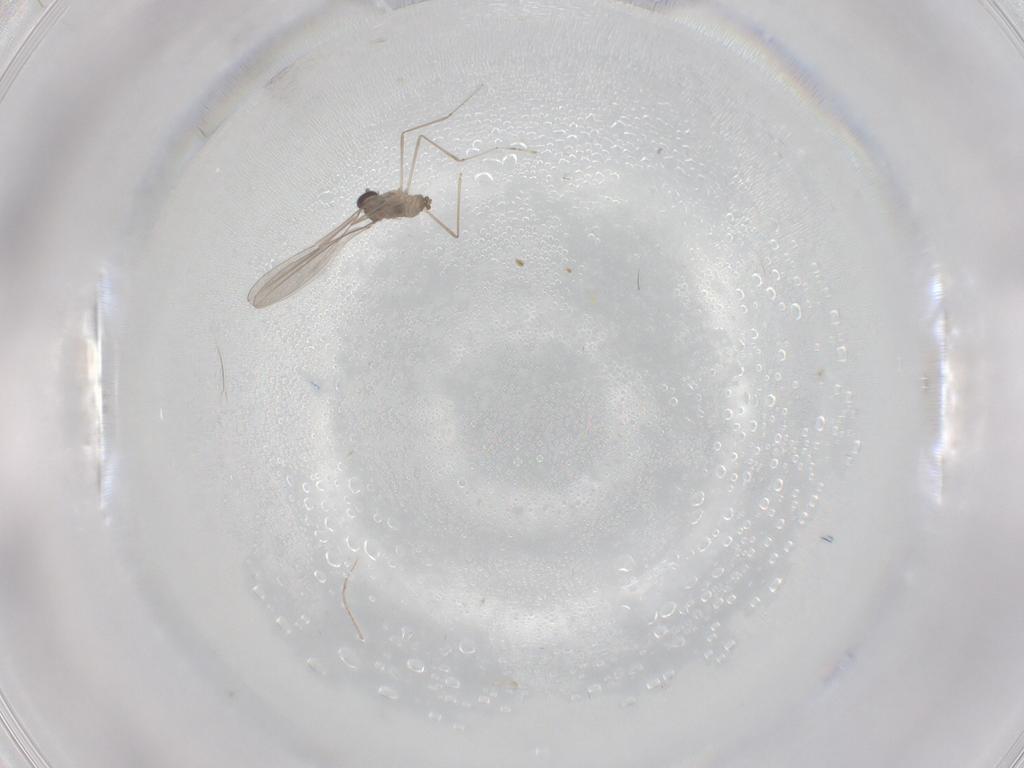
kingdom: Animalia
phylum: Arthropoda
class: Insecta
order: Diptera
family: Cecidomyiidae
